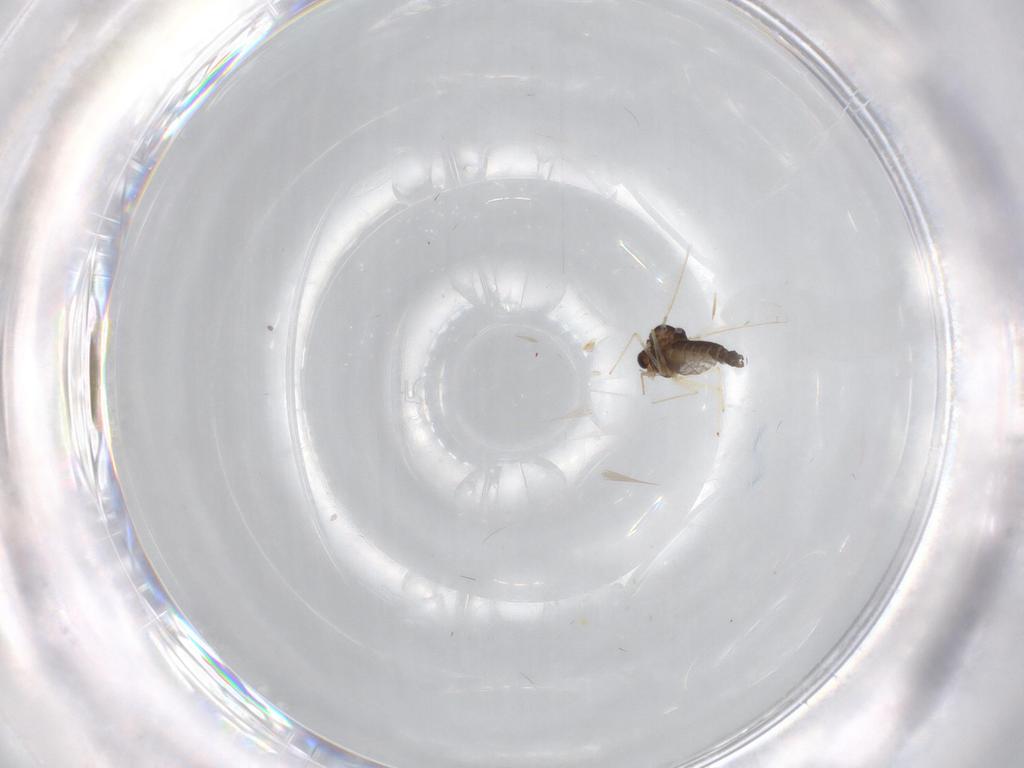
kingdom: Animalia
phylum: Arthropoda
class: Insecta
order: Diptera
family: Chironomidae
